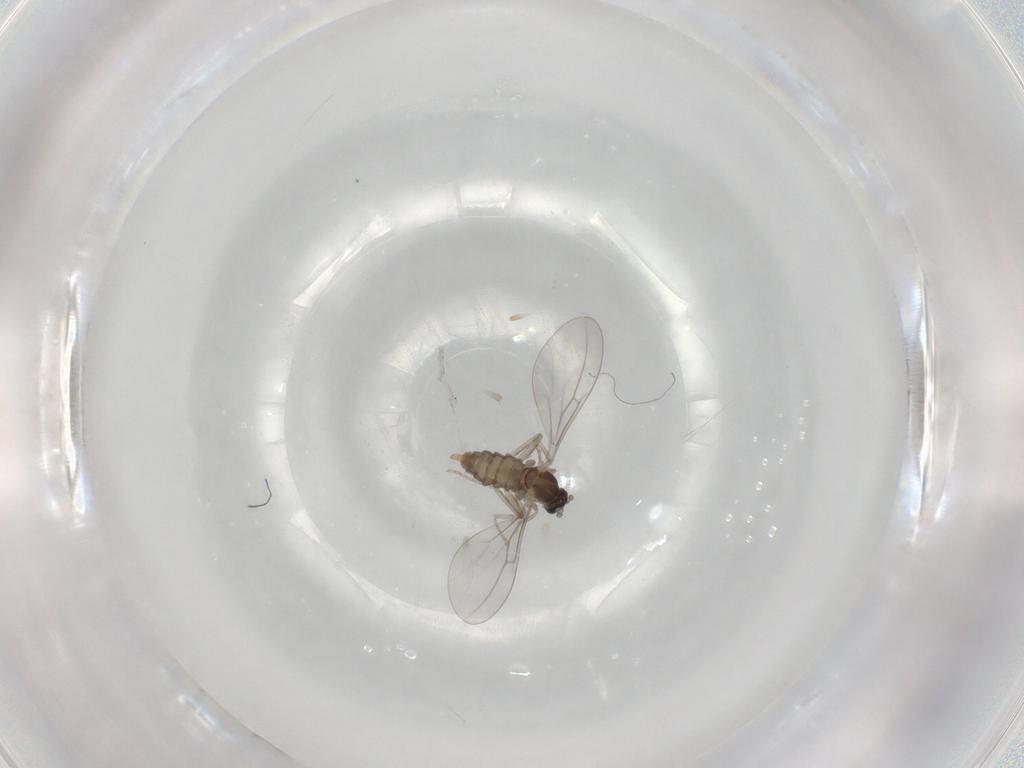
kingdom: Animalia
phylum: Arthropoda
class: Insecta
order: Diptera
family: Cecidomyiidae
